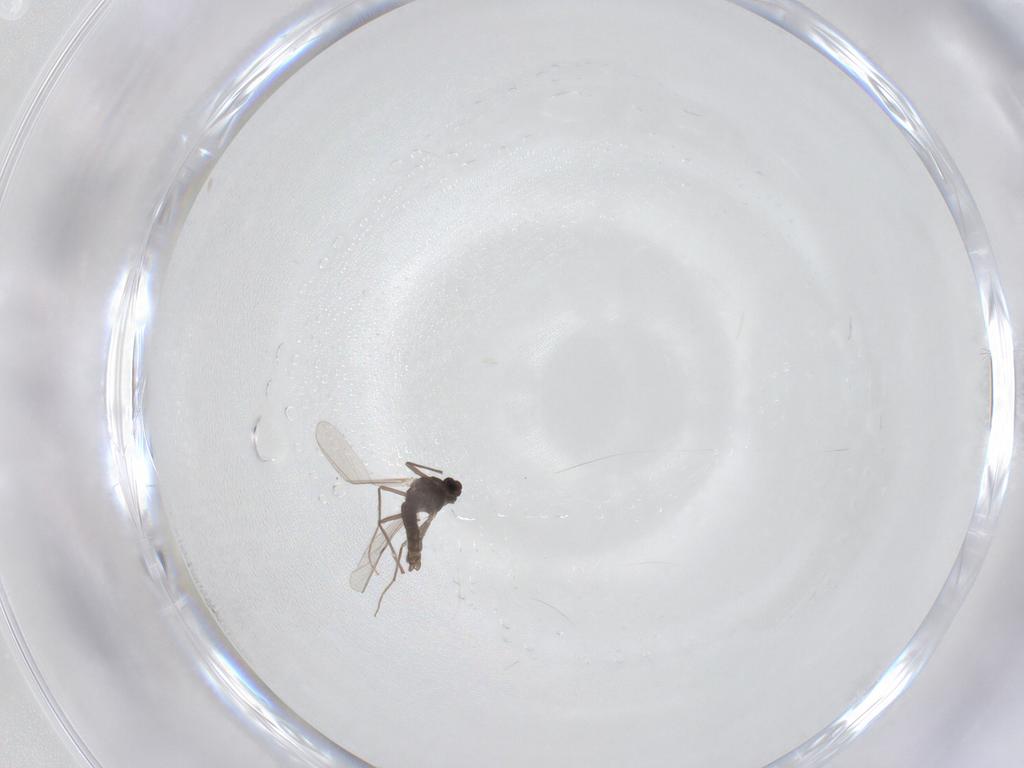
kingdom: Animalia
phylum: Arthropoda
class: Insecta
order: Diptera
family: Chironomidae
